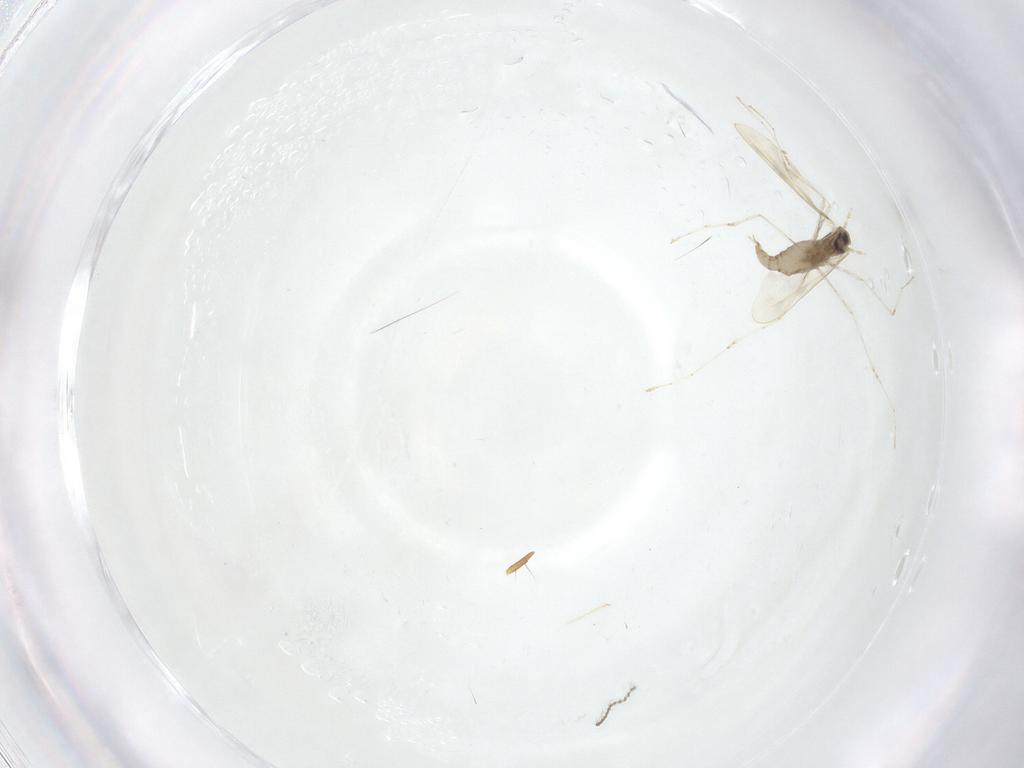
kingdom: Animalia
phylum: Arthropoda
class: Insecta
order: Diptera
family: Cecidomyiidae
